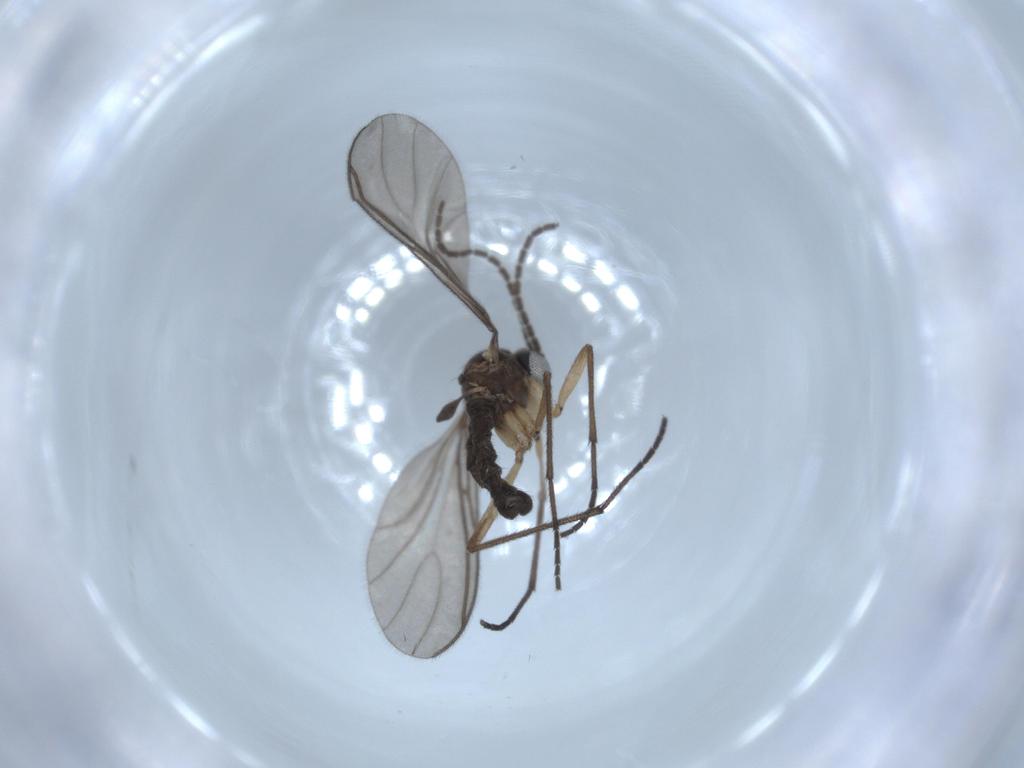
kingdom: Animalia
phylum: Arthropoda
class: Insecta
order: Diptera
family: Sciaridae
